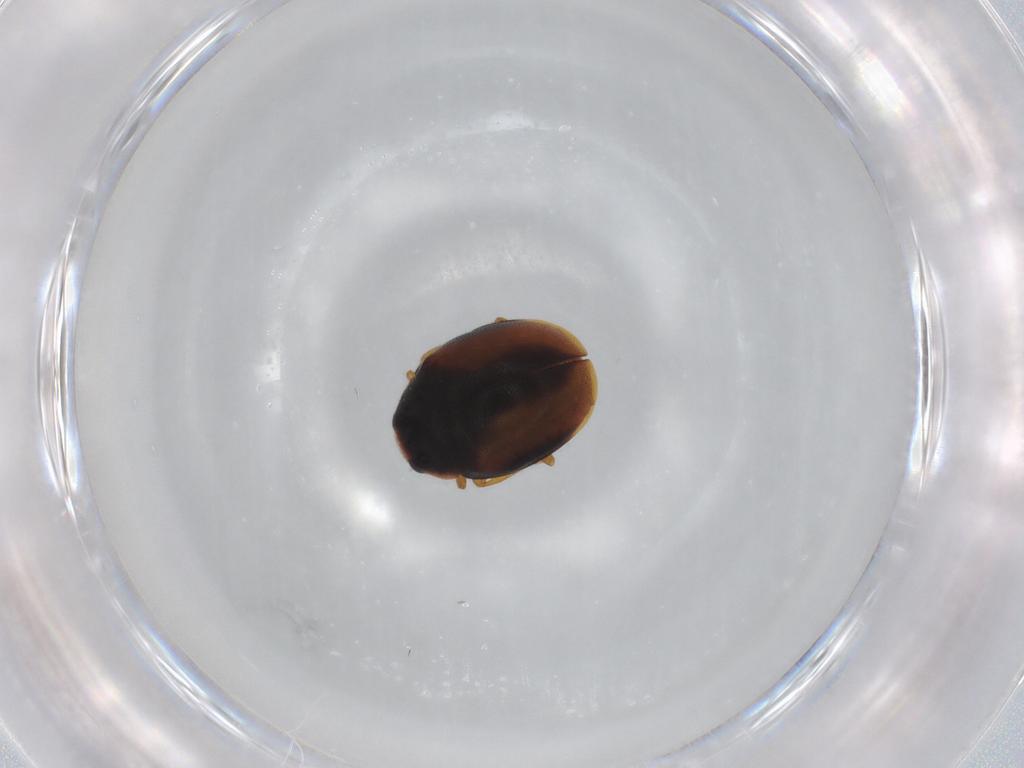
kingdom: Animalia
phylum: Arthropoda
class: Insecta
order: Coleoptera
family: Coccinellidae
